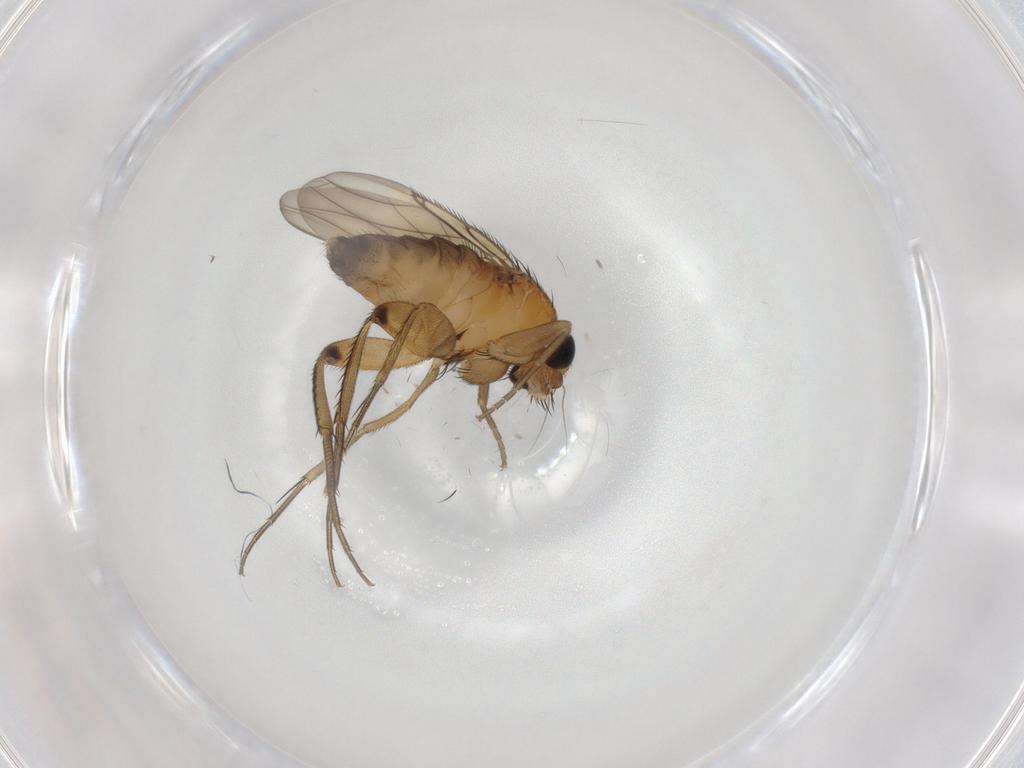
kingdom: Animalia
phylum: Arthropoda
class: Insecta
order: Diptera
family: Phoridae
